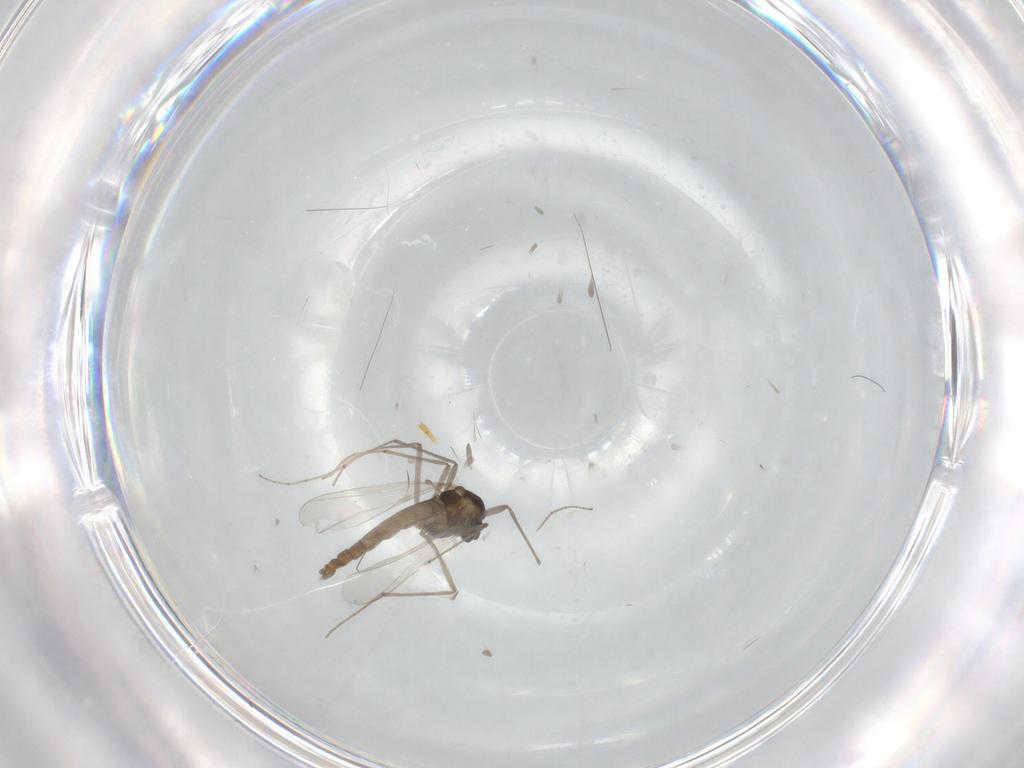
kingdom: Animalia
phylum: Arthropoda
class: Insecta
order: Diptera
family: Chironomidae
